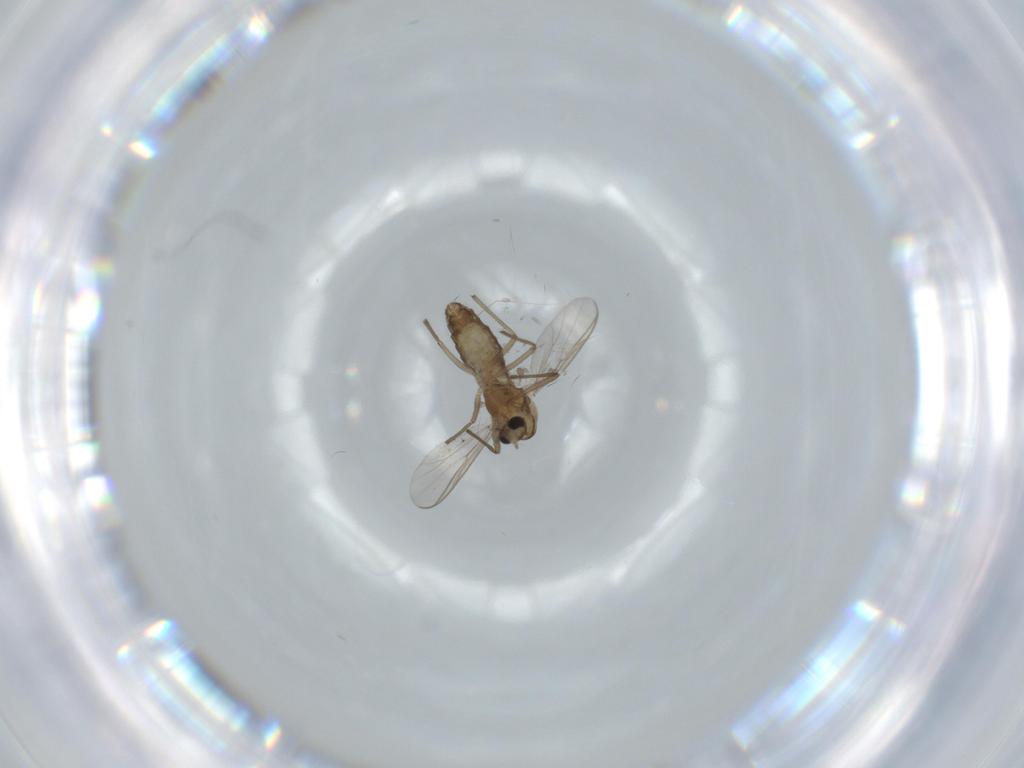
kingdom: Animalia
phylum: Arthropoda
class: Insecta
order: Diptera
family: Chironomidae
